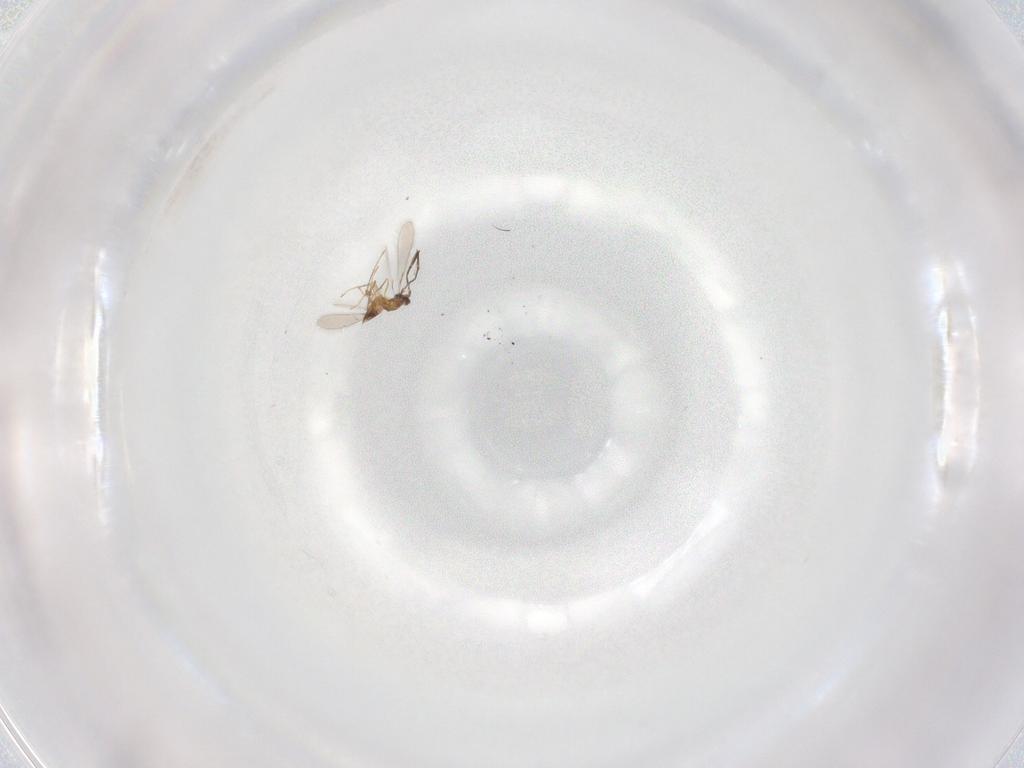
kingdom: Animalia
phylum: Arthropoda
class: Insecta
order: Hymenoptera
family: Mymaridae
